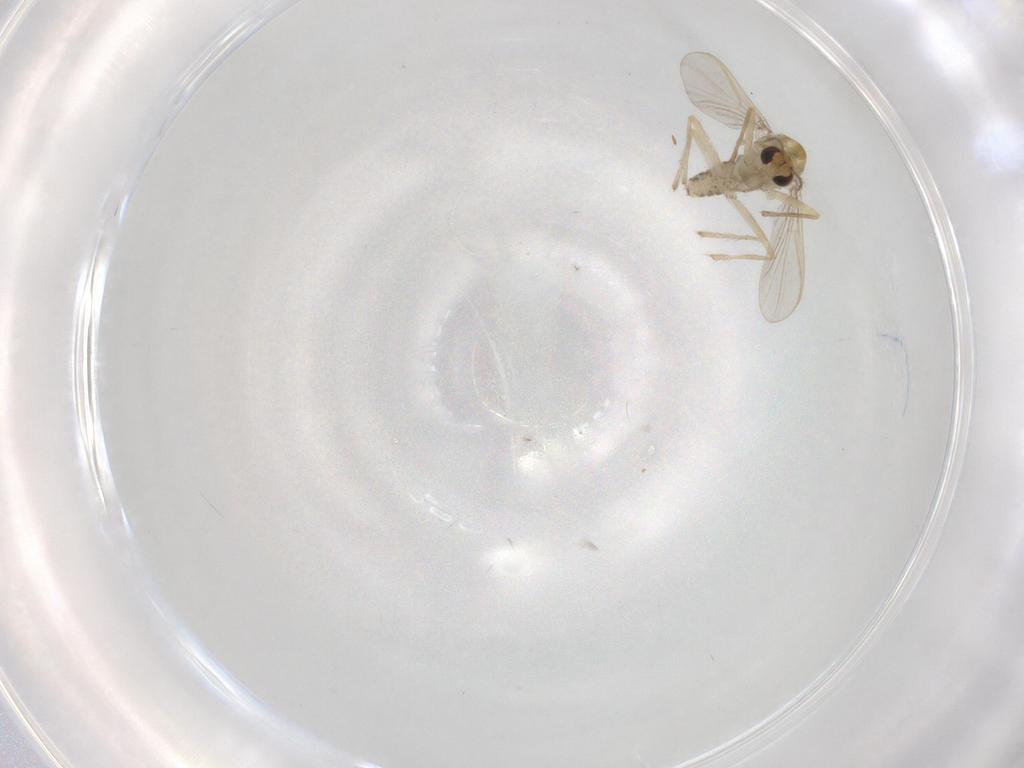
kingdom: Animalia
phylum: Arthropoda
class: Insecta
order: Diptera
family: Chironomidae
